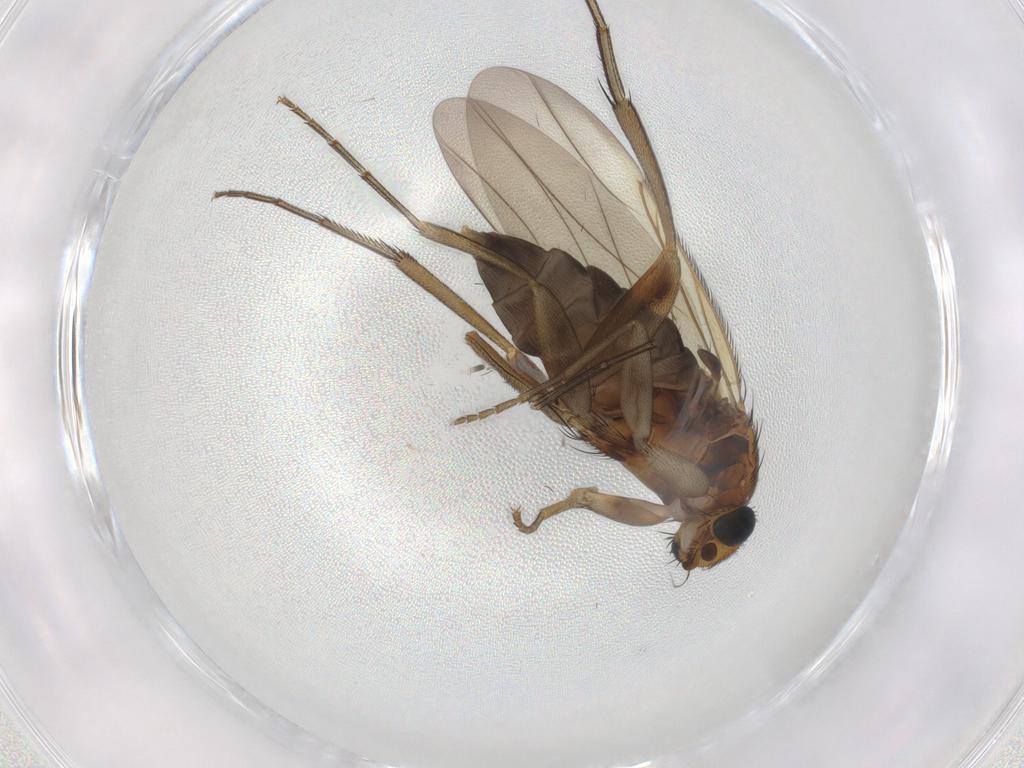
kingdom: Animalia
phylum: Arthropoda
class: Insecta
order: Diptera
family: Phoridae
